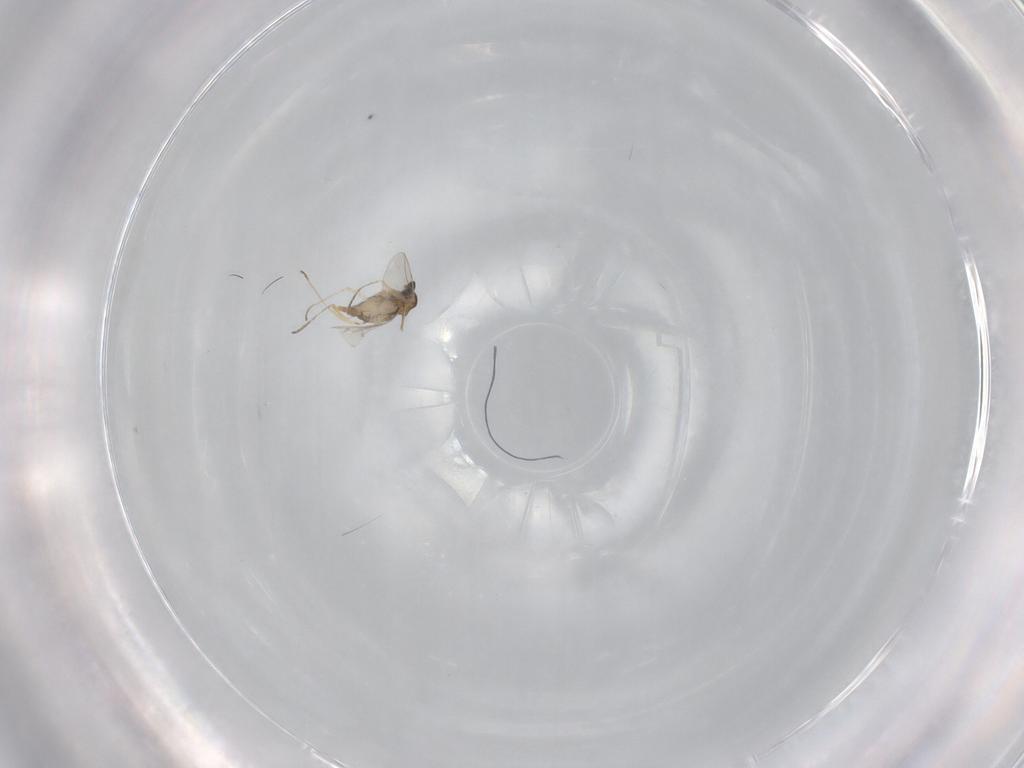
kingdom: Animalia
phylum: Arthropoda
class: Insecta
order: Diptera
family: Cecidomyiidae
